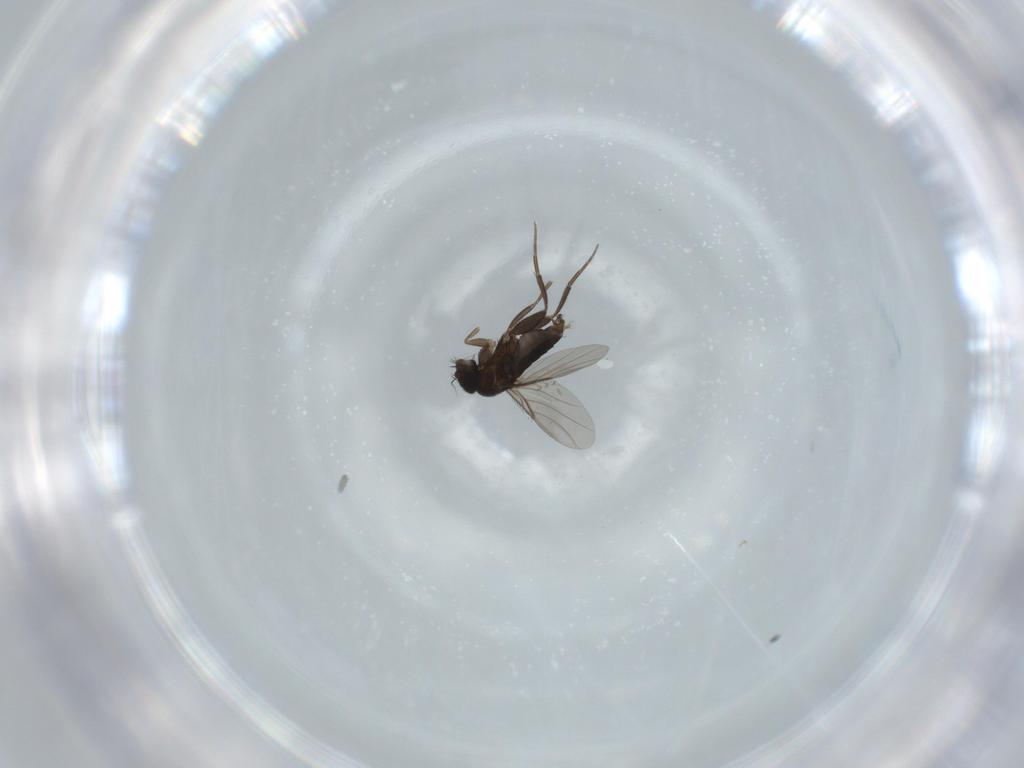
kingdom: Animalia
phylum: Arthropoda
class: Insecta
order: Diptera
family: Phoridae
